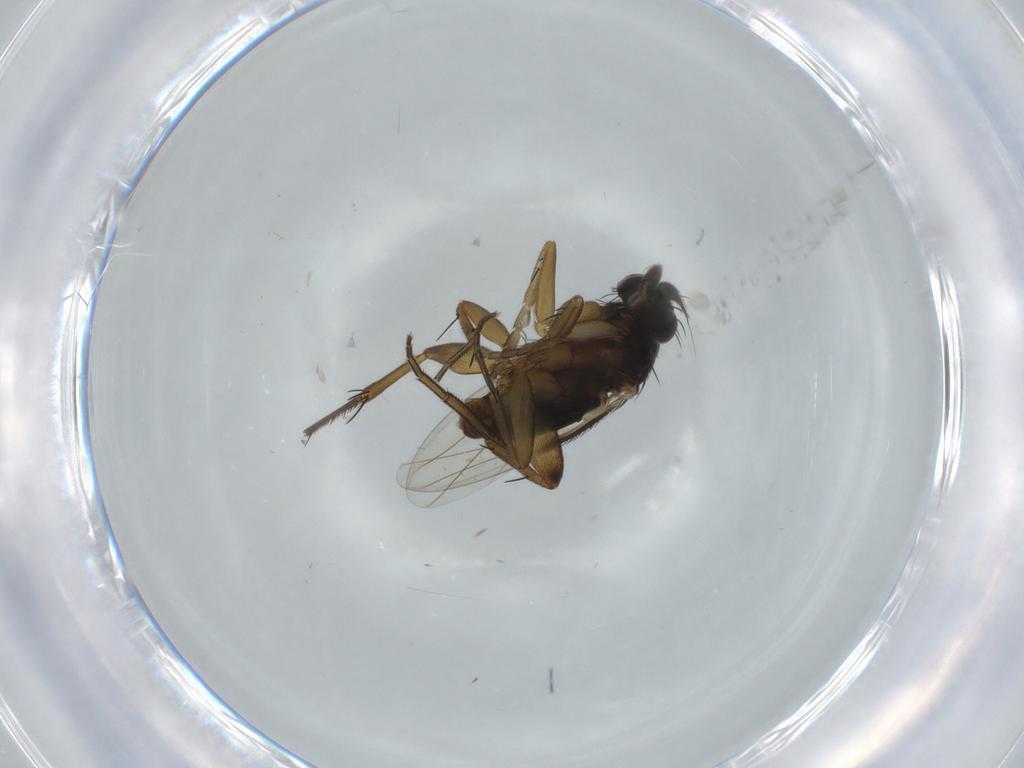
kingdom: Animalia
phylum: Arthropoda
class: Insecta
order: Diptera
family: Phoridae
